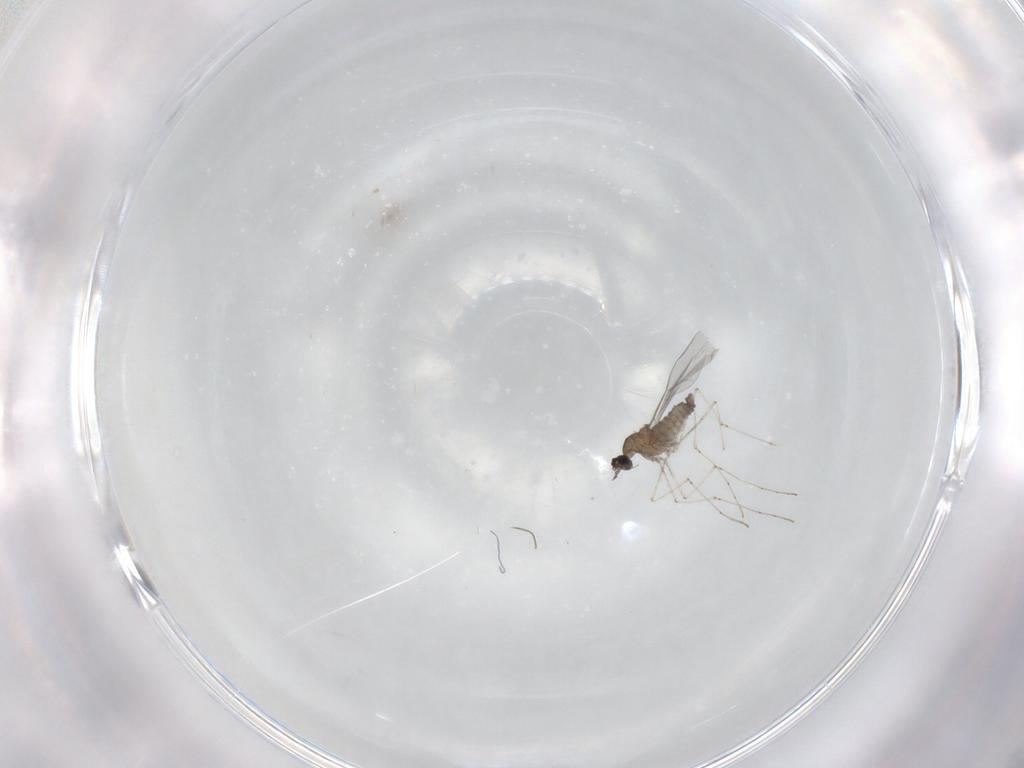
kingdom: Animalia
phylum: Arthropoda
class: Insecta
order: Diptera
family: Cecidomyiidae
